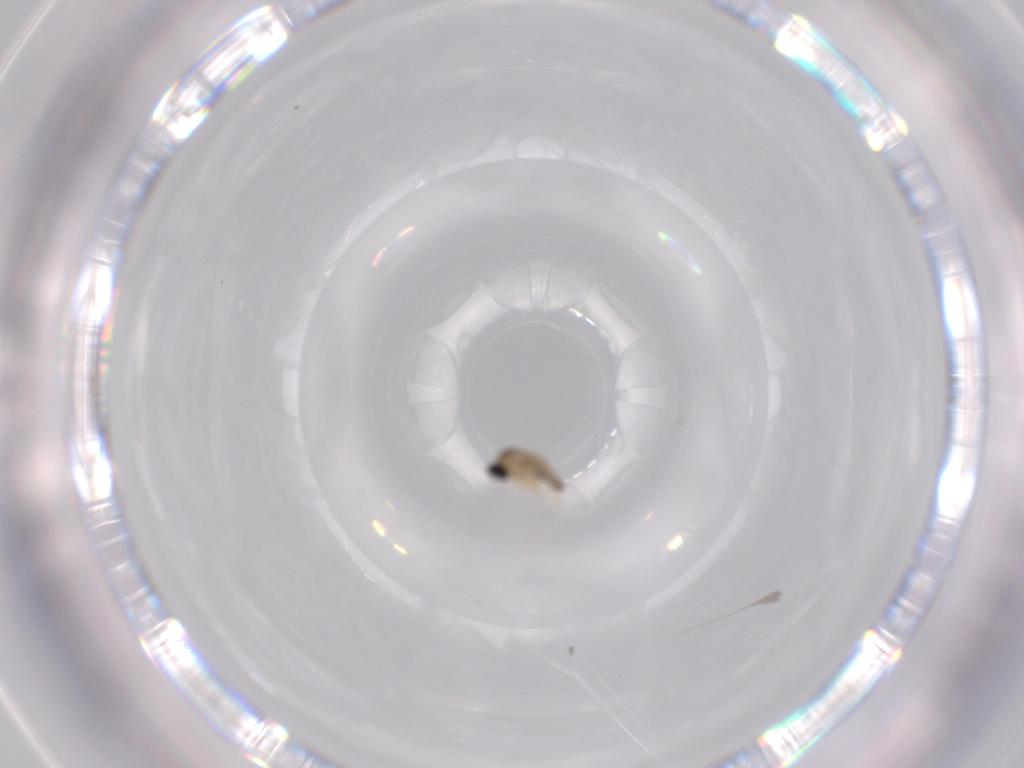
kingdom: Animalia
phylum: Arthropoda
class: Insecta
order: Diptera
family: Cecidomyiidae
